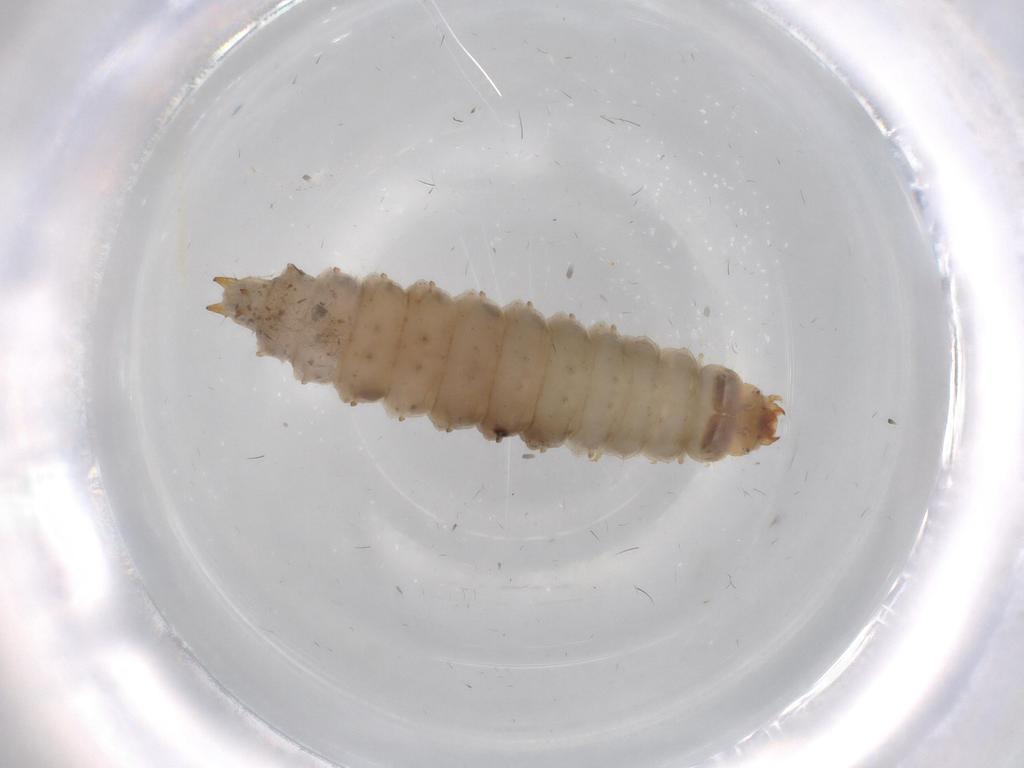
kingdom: Animalia
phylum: Arthropoda
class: Insecta
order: Coleoptera
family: Nitidulidae
